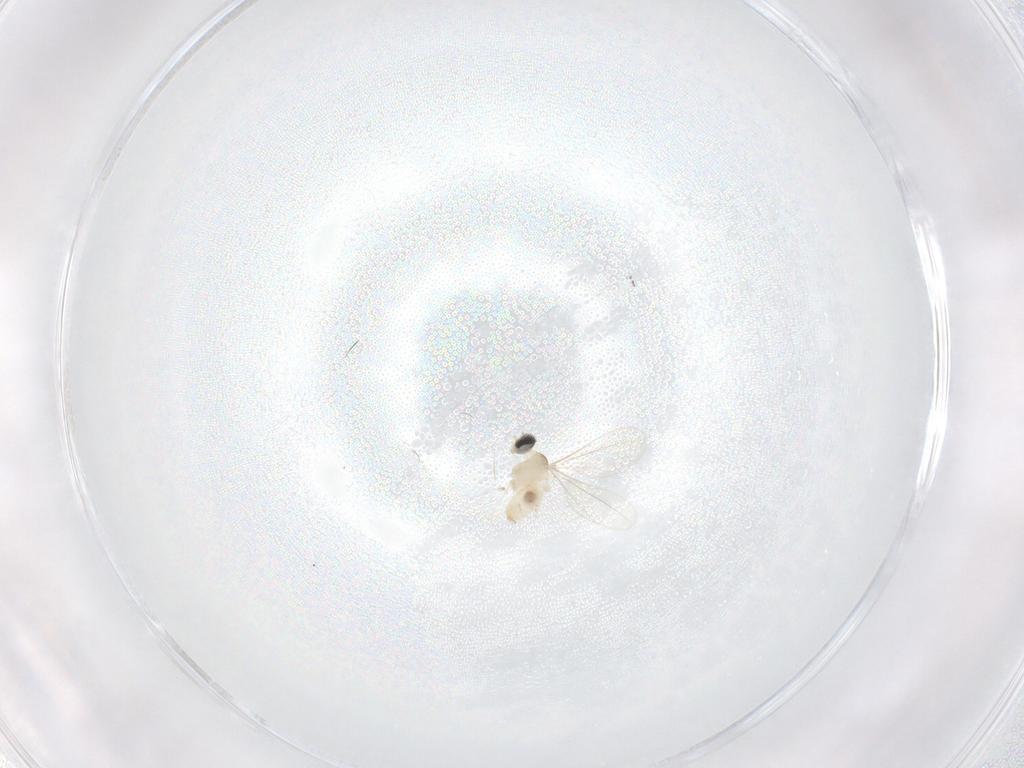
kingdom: Animalia
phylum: Arthropoda
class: Insecta
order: Diptera
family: Cecidomyiidae
